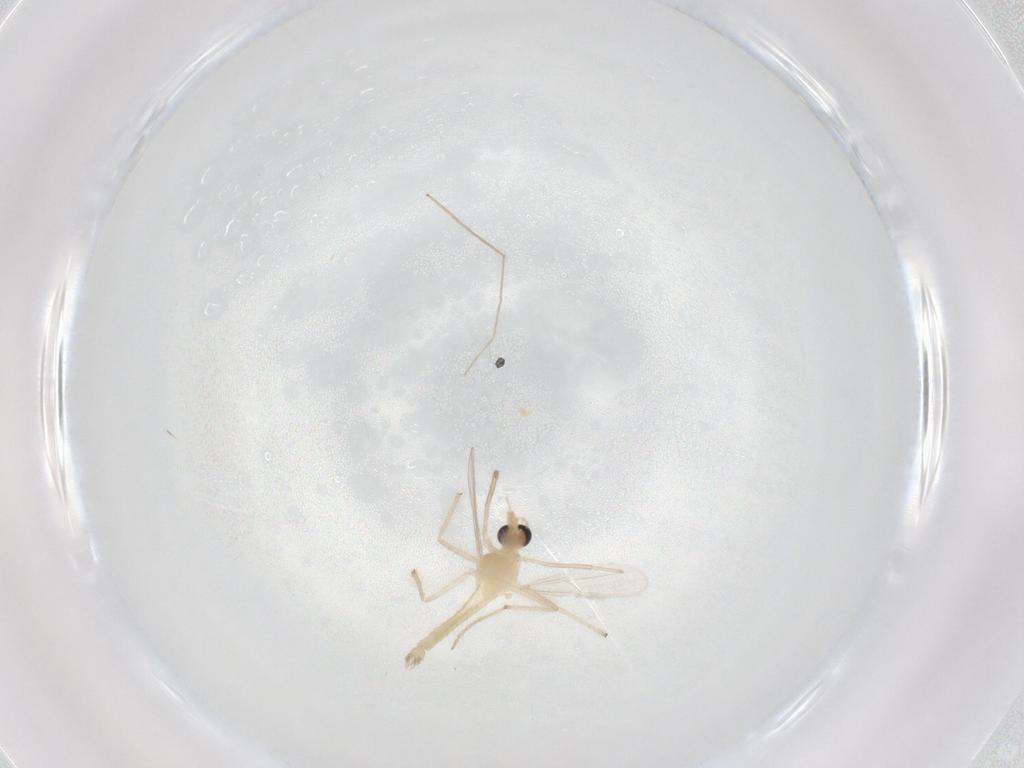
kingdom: Animalia
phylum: Arthropoda
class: Insecta
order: Diptera
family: Chironomidae
